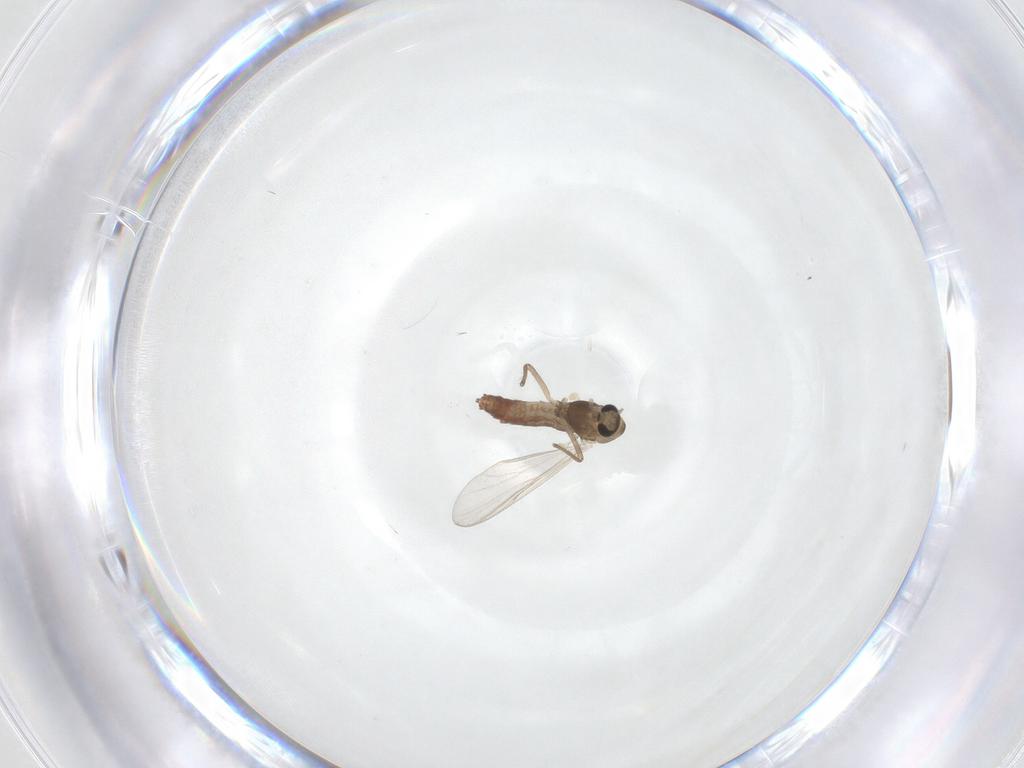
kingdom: Animalia
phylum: Arthropoda
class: Insecta
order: Diptera
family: Chironomidae
